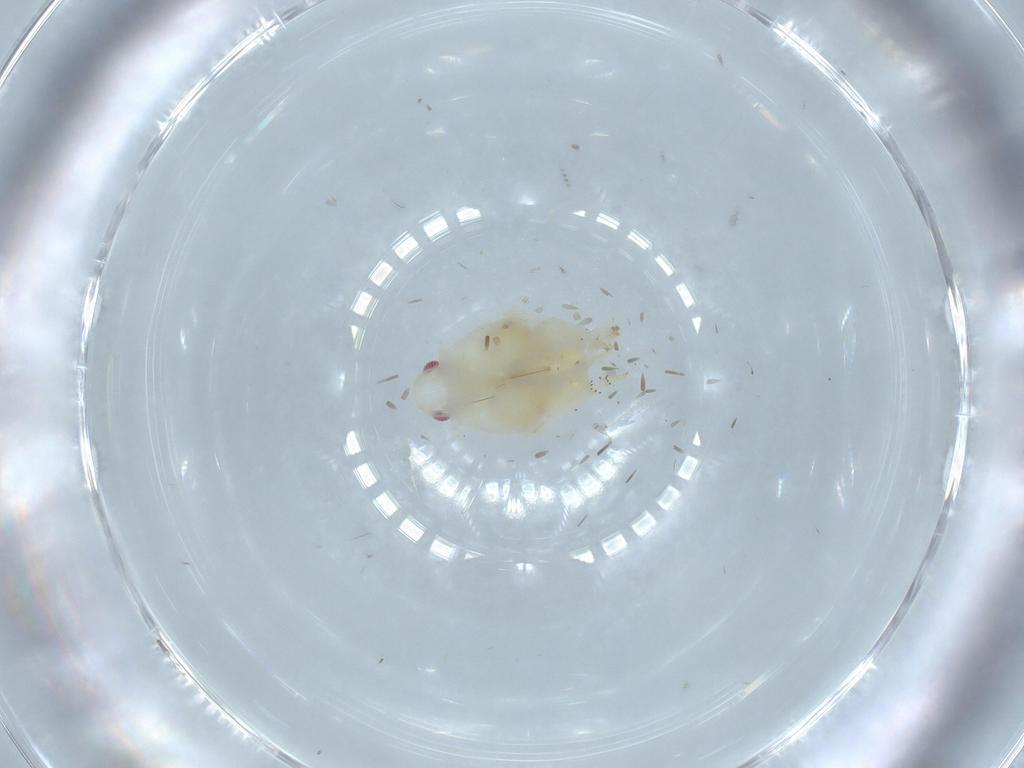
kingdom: Animalia
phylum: Arthropoda
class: Insecta
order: Hemiptera
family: Flatidae
